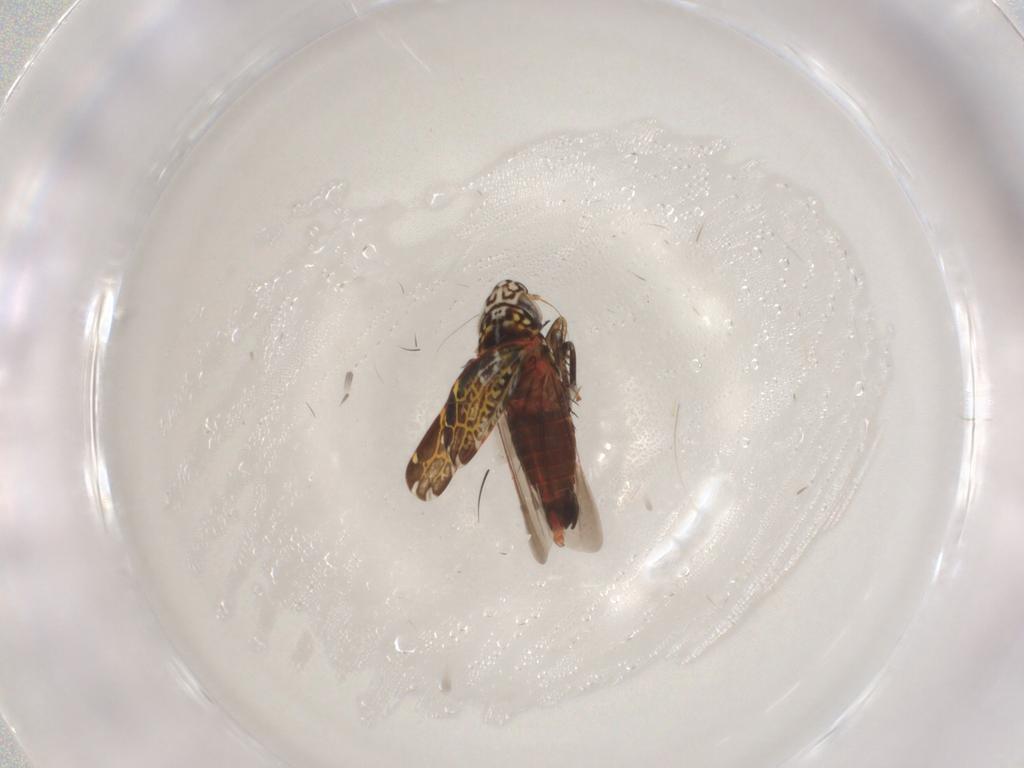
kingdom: Animalia
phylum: Arthropoda
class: Insecta
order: Hemiptera
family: Cicadellidae
